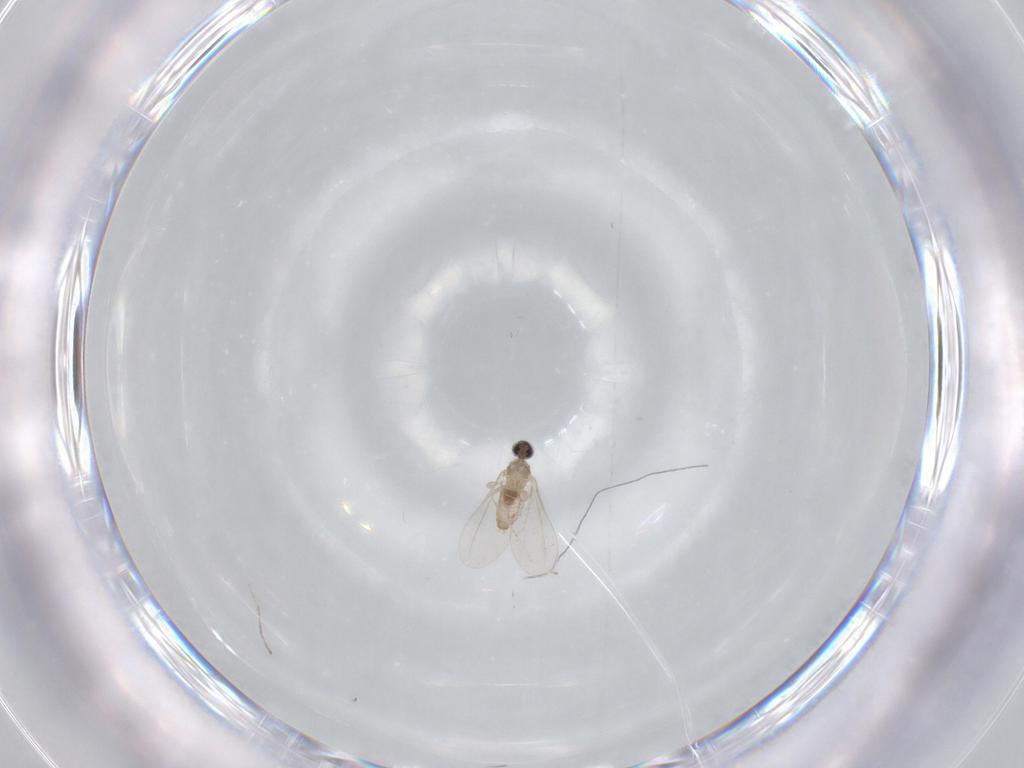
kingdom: Animalia
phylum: Arthropoda
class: Insecta
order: Diptera
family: Cecidomyiidae
